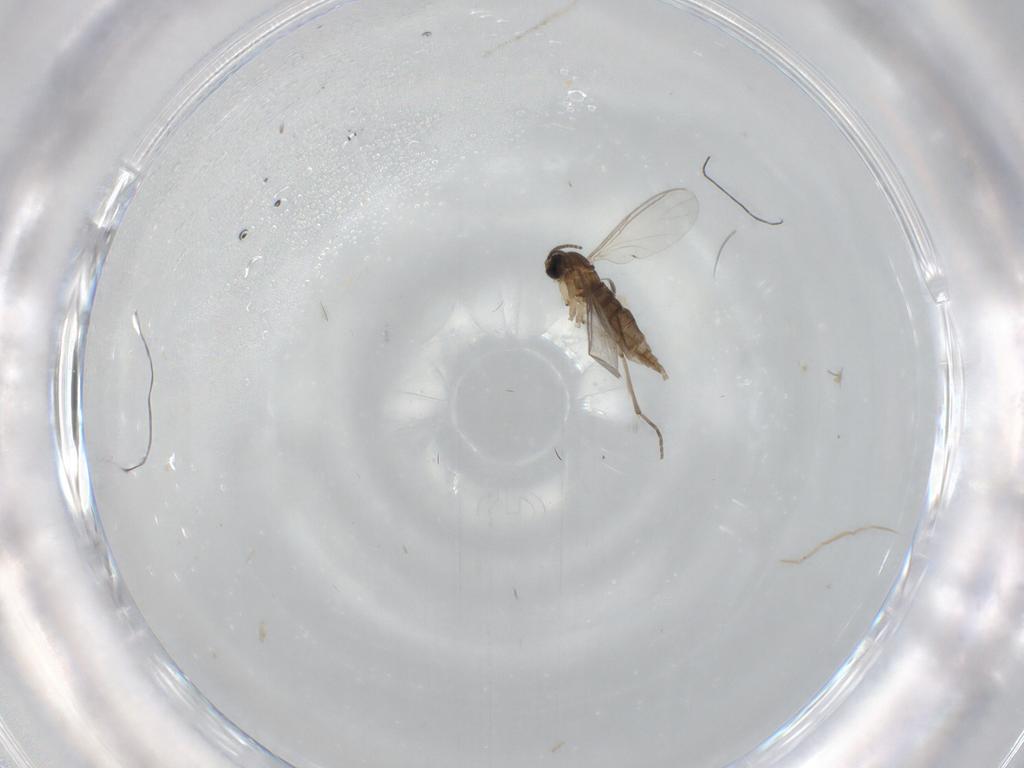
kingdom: Animalia
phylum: Arthropoda
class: Insecta
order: Diptera
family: Sciaridae
